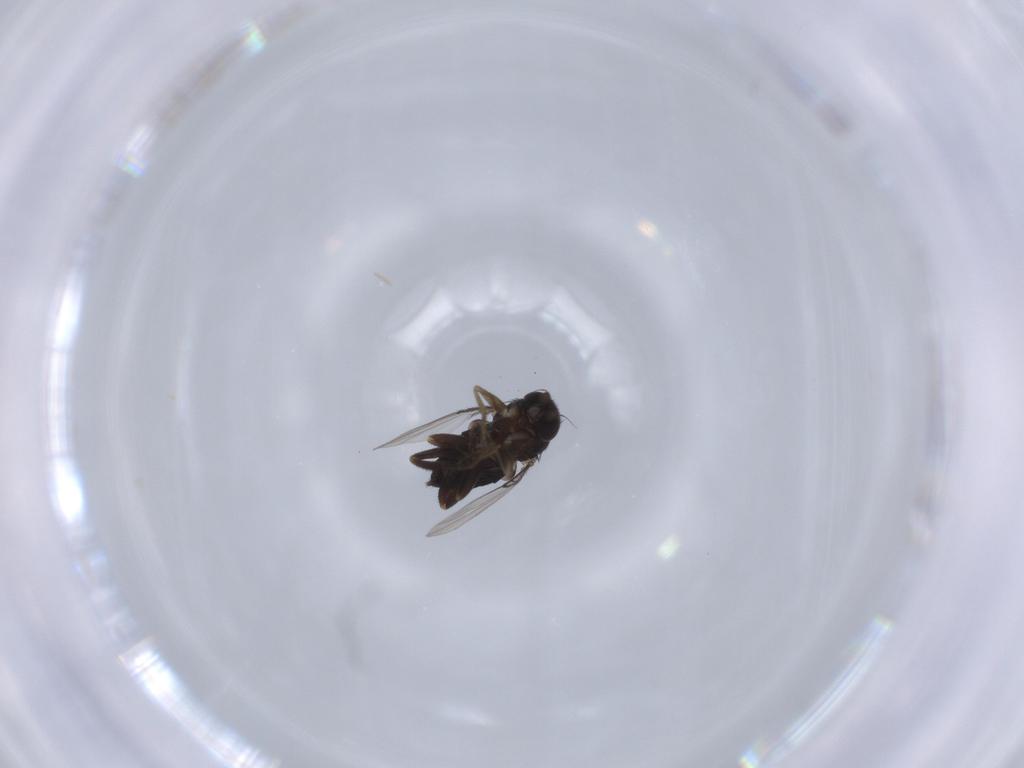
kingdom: Animalia
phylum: Arthropoda
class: Insecta
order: Diptera
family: Phoridae
